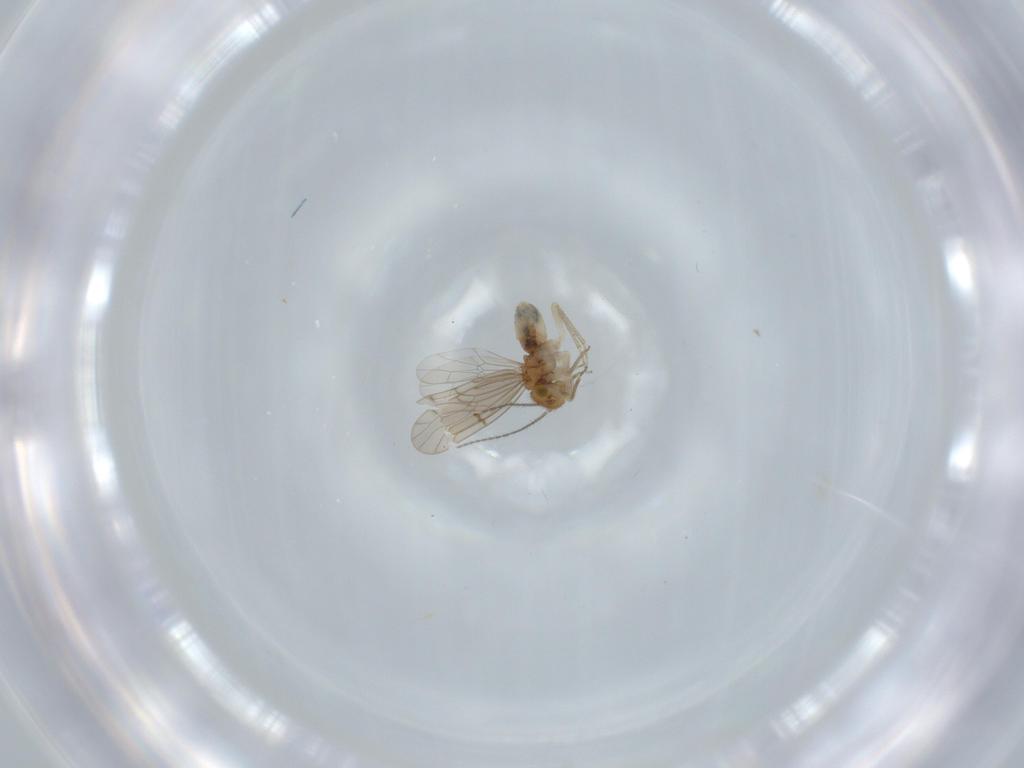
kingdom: Animalia
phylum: Arthropoda
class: Insecta
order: Psocodea
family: Ectopsocidae
